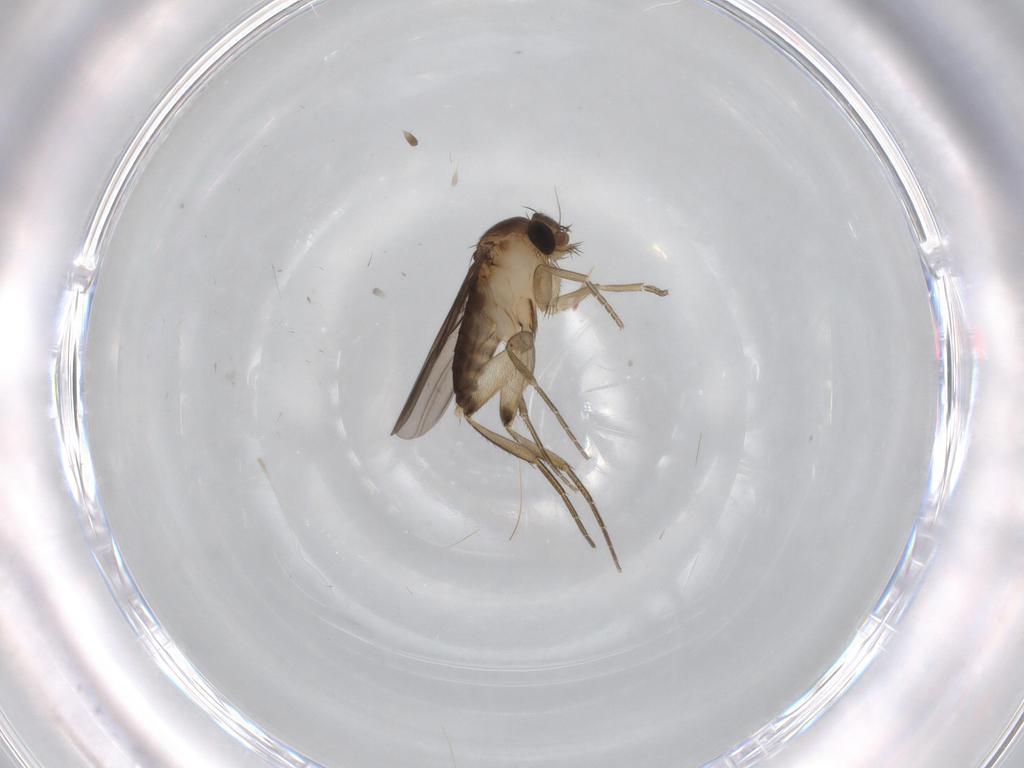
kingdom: Animalia
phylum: Arthropoda
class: Insecta
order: Diptera
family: Phoridae
